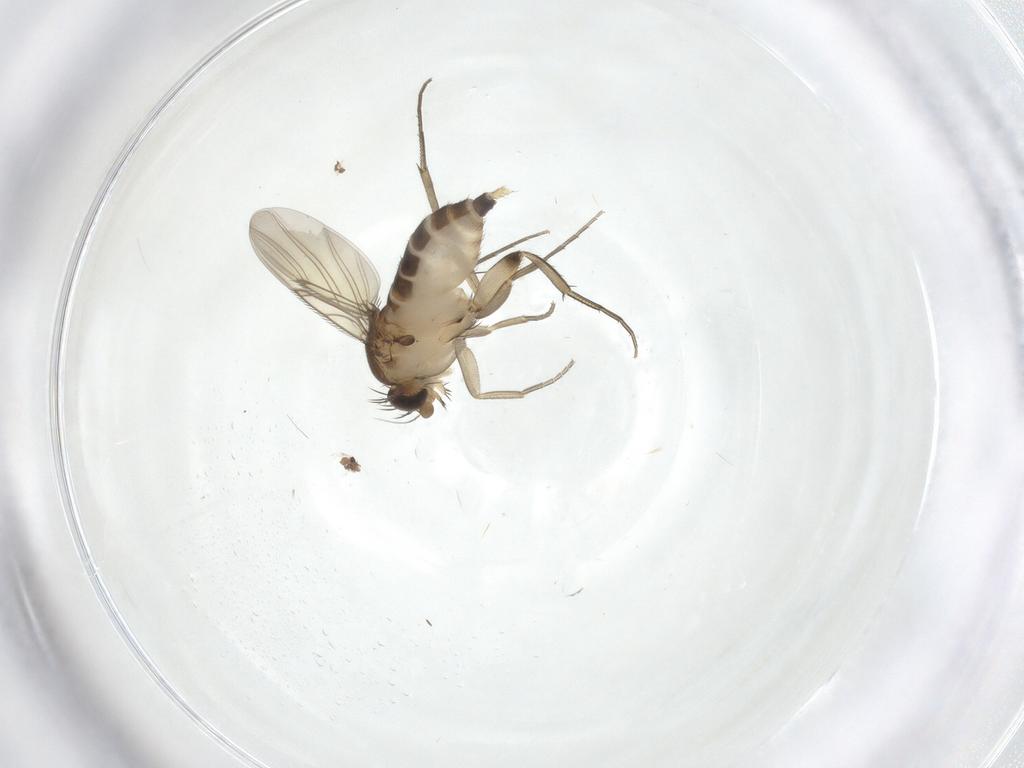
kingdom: Animalia
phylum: Arthropoda
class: Insecta
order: Diptera
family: Phoridae
